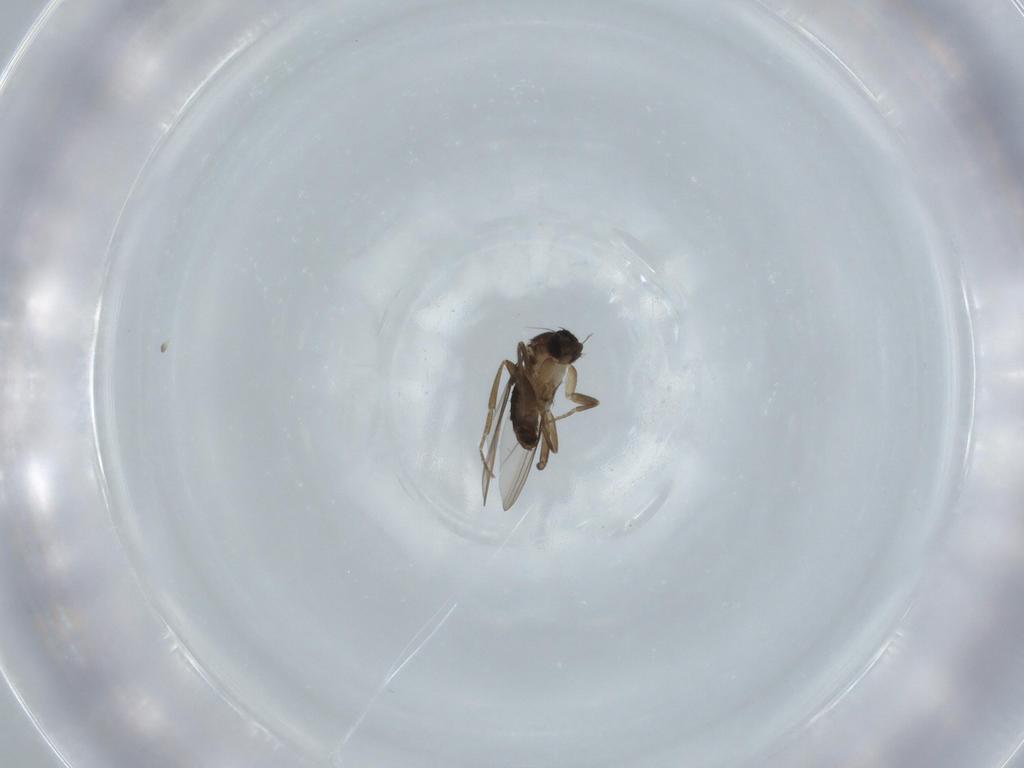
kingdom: Animalia
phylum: Arthropoda
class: Insecta
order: Diptera
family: Phoridae
